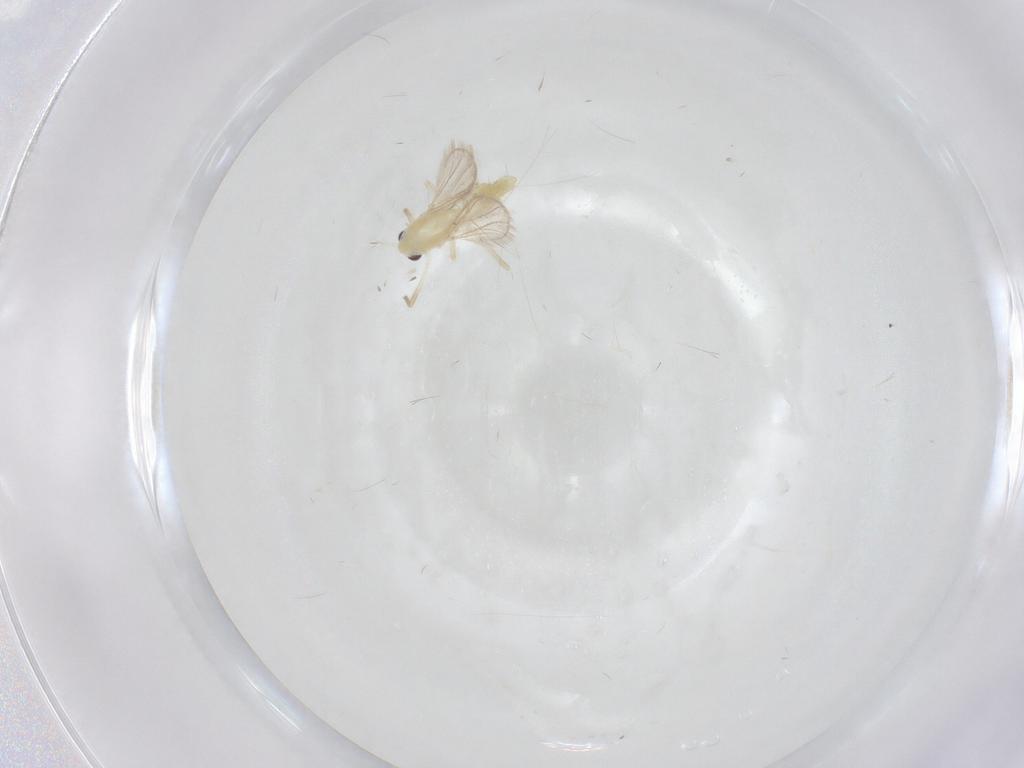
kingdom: Animalia
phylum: Arthropoda
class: Insecta
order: Diptera
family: Chironomidae
